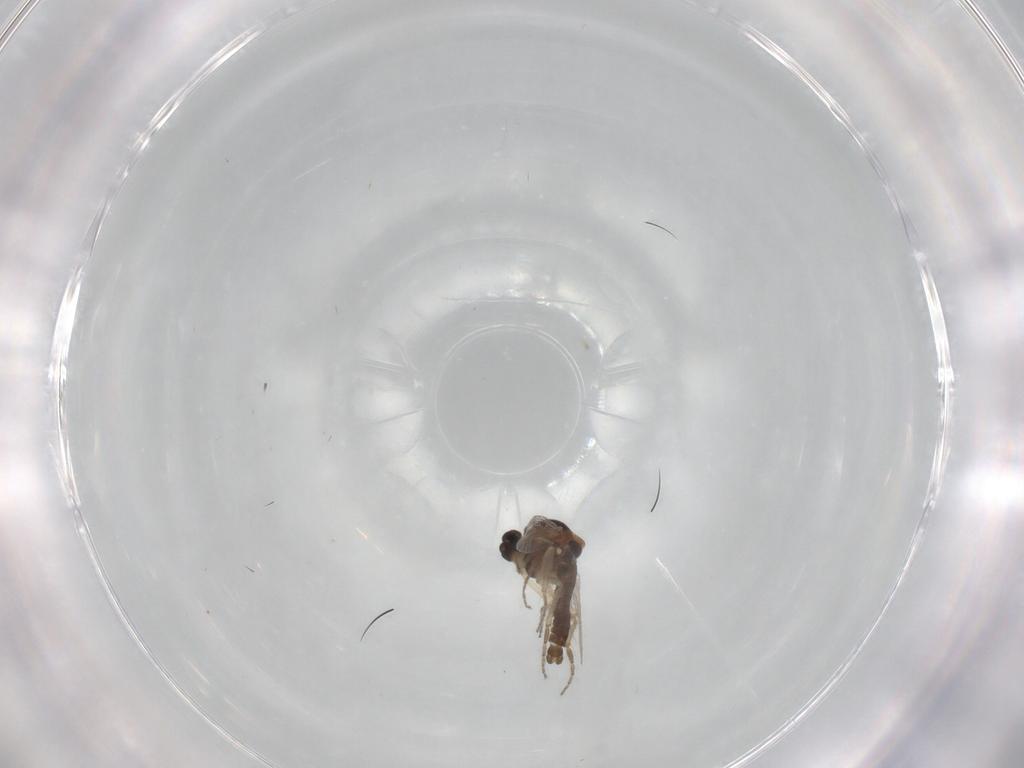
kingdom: Animalia
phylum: Arthropoda
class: Insecta
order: Diptera
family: Ceratopogonidae
